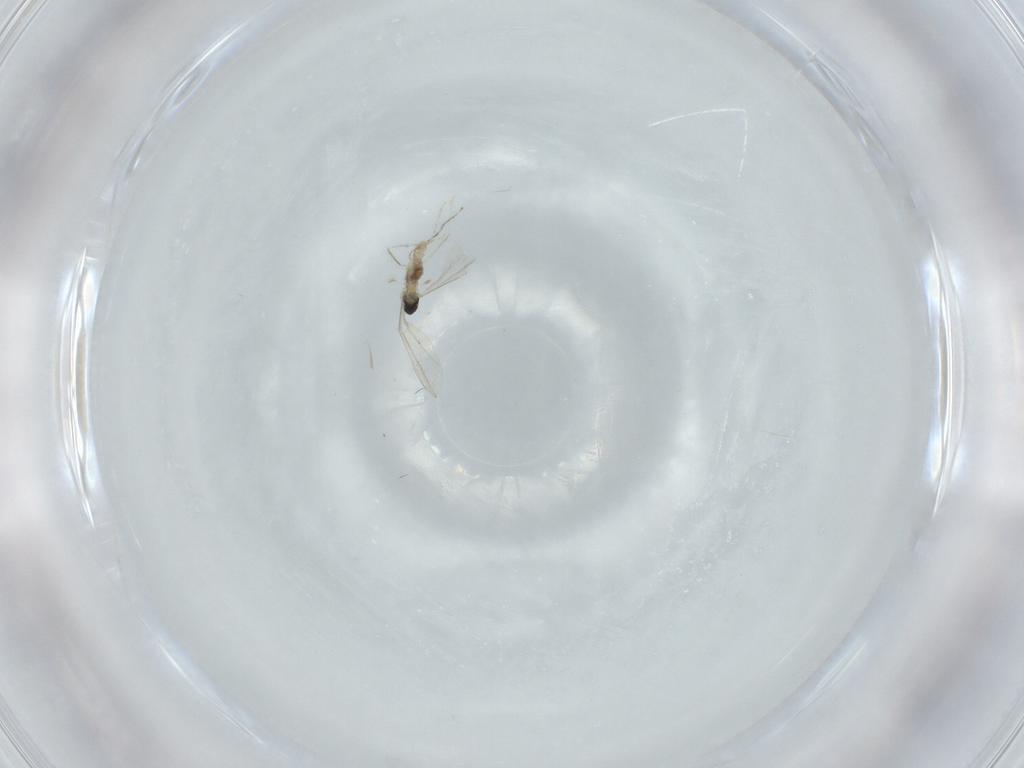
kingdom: Animalia
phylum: Arthropoda
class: Insecta
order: Diptera
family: Cecidomyiidae
